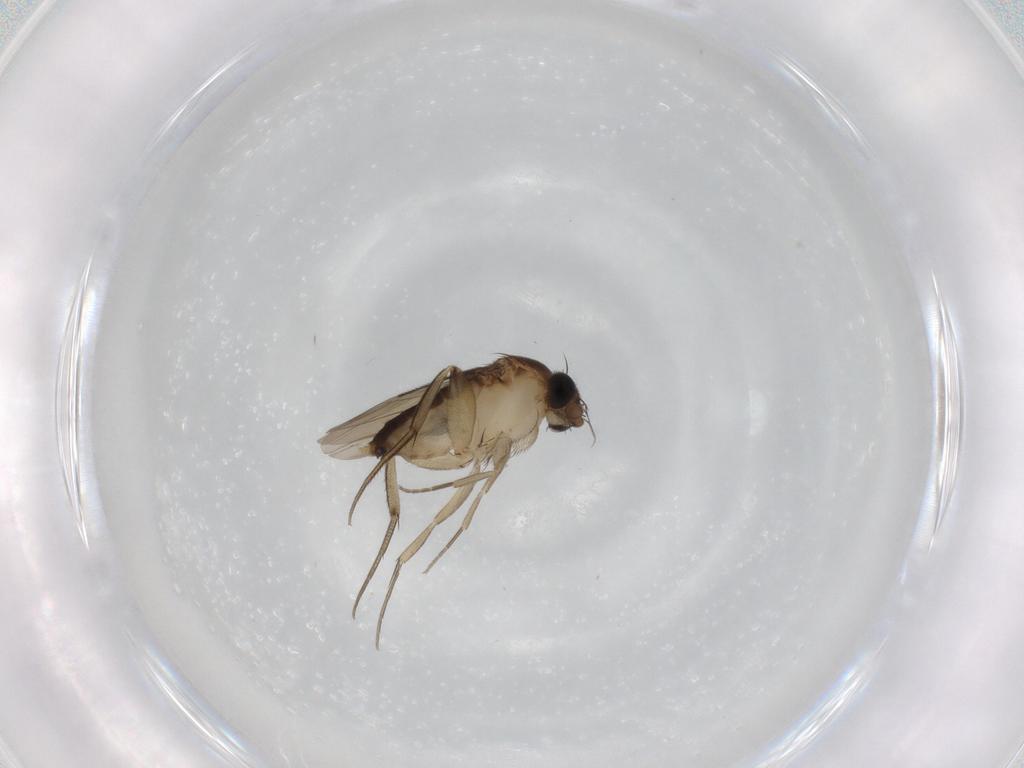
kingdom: Animalia
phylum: Arthropoda
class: Insecta
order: Diptera
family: Phoridae
